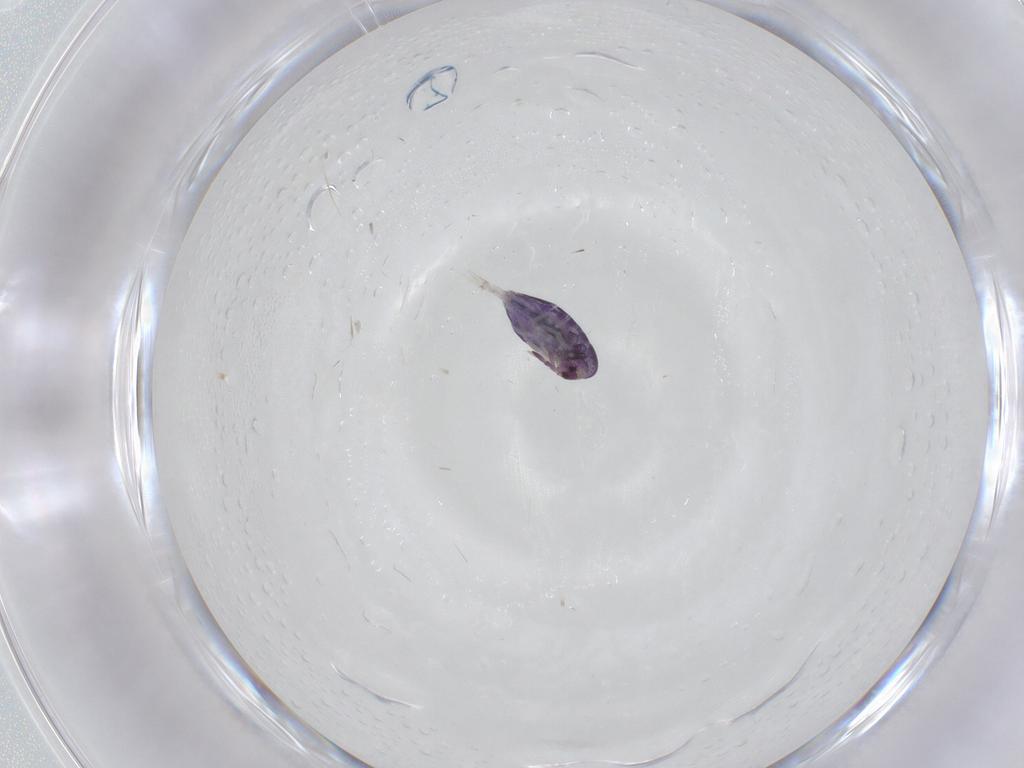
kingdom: Animalia
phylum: Arthropoda
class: Collembola
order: Entomobryomorpha
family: Entomobryidae
